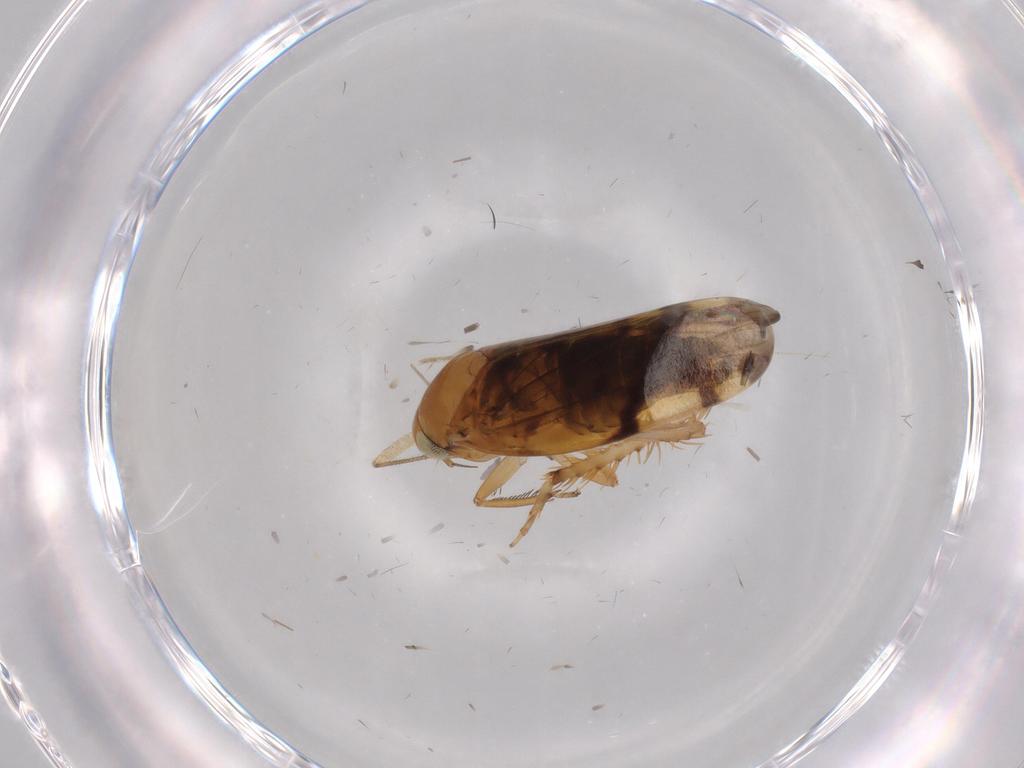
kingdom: Animalia
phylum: Arthropoda
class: Insecta
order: Hemiptera
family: Cicadellidae
